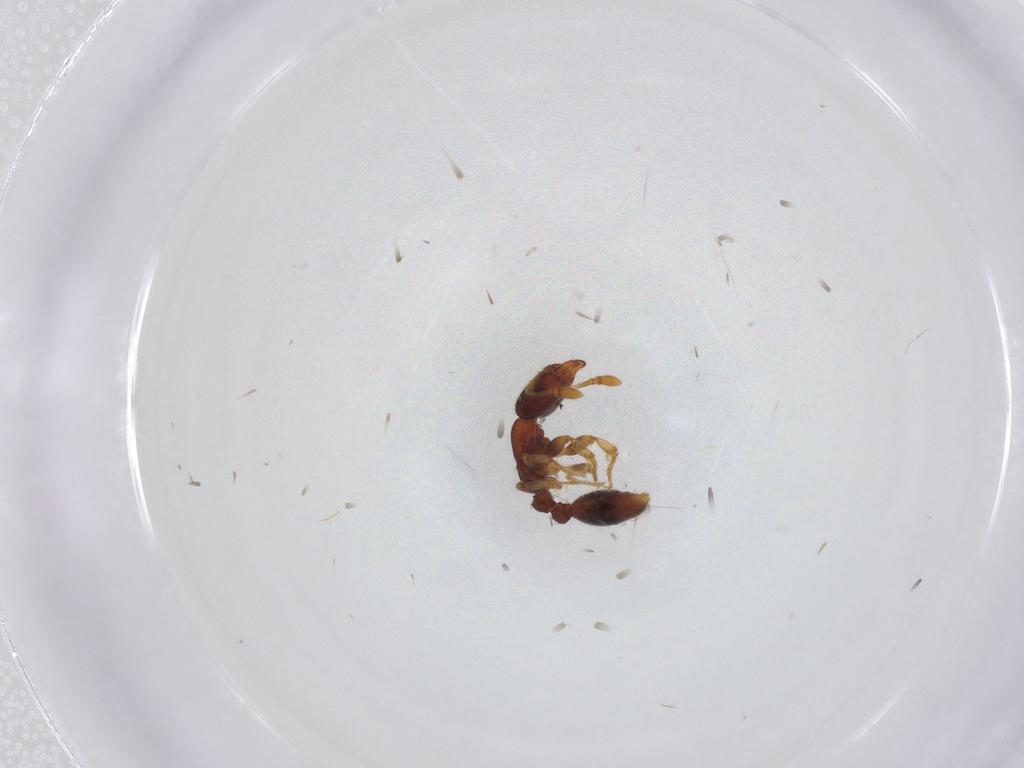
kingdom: Animalia
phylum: Arthropoda
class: Insecta
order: Hymenoptera
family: Formicidae
